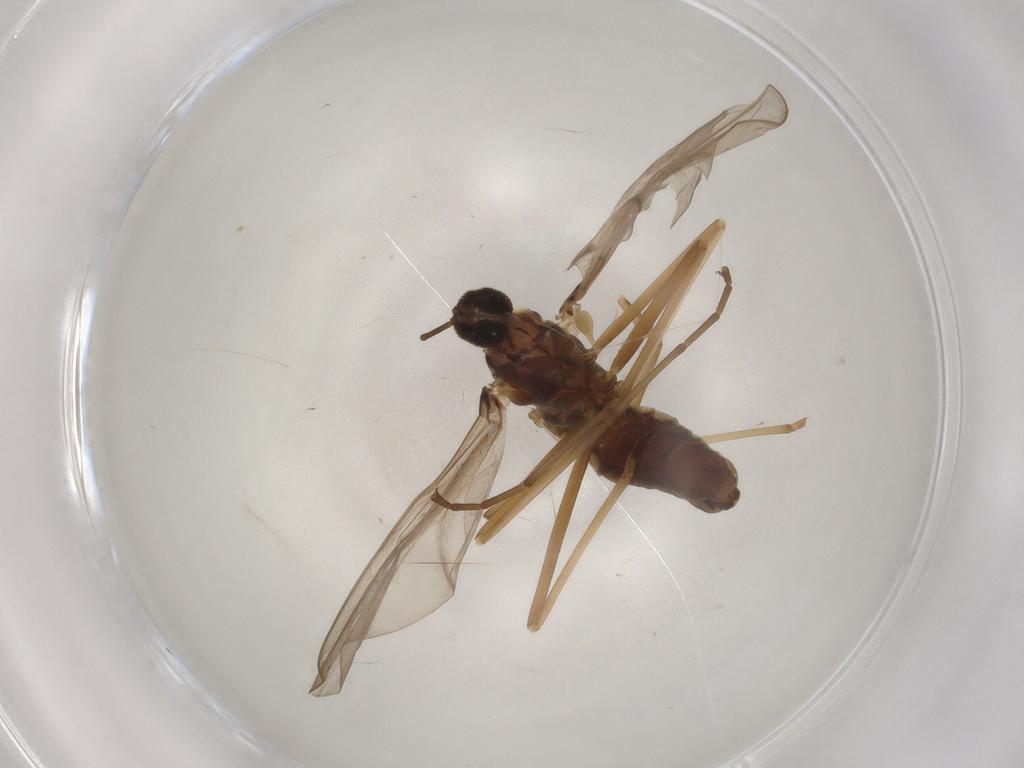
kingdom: Animalia
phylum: Arthropoda
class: Insecta
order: Diptera
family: Cecidomyiidae
